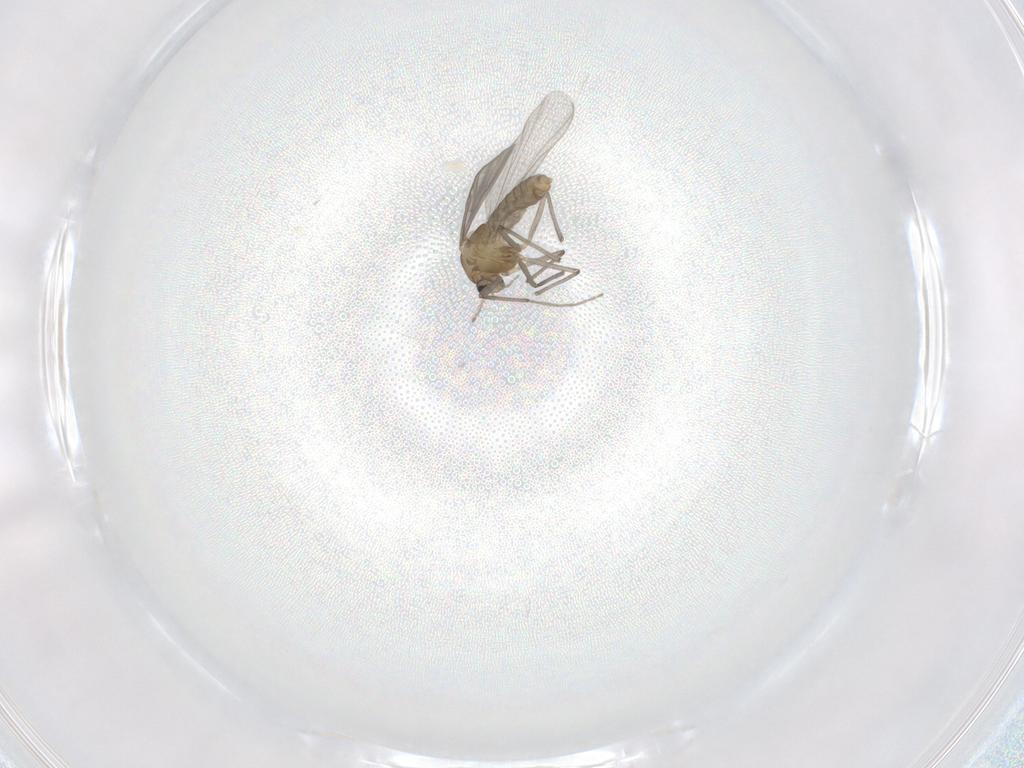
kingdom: Animalia
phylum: Arthropoda
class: Insecta
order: Diptera
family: Chironomidae
